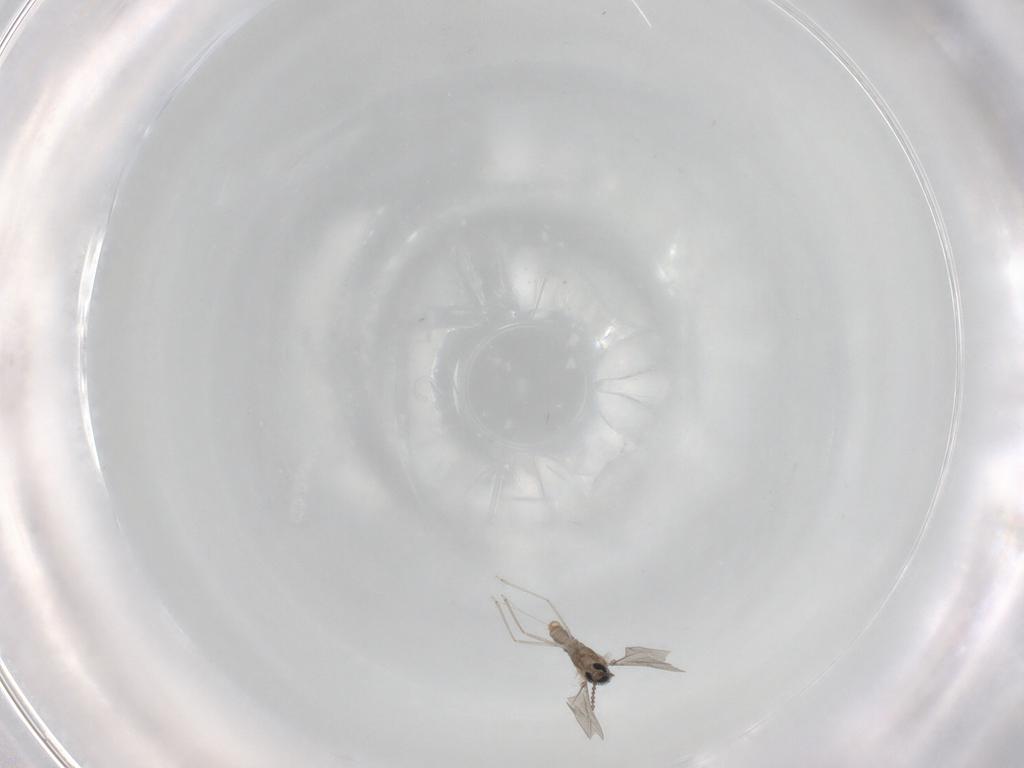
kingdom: Animalia
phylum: Arthropoda
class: Insecta
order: Diptera
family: Cecidomyiidae
